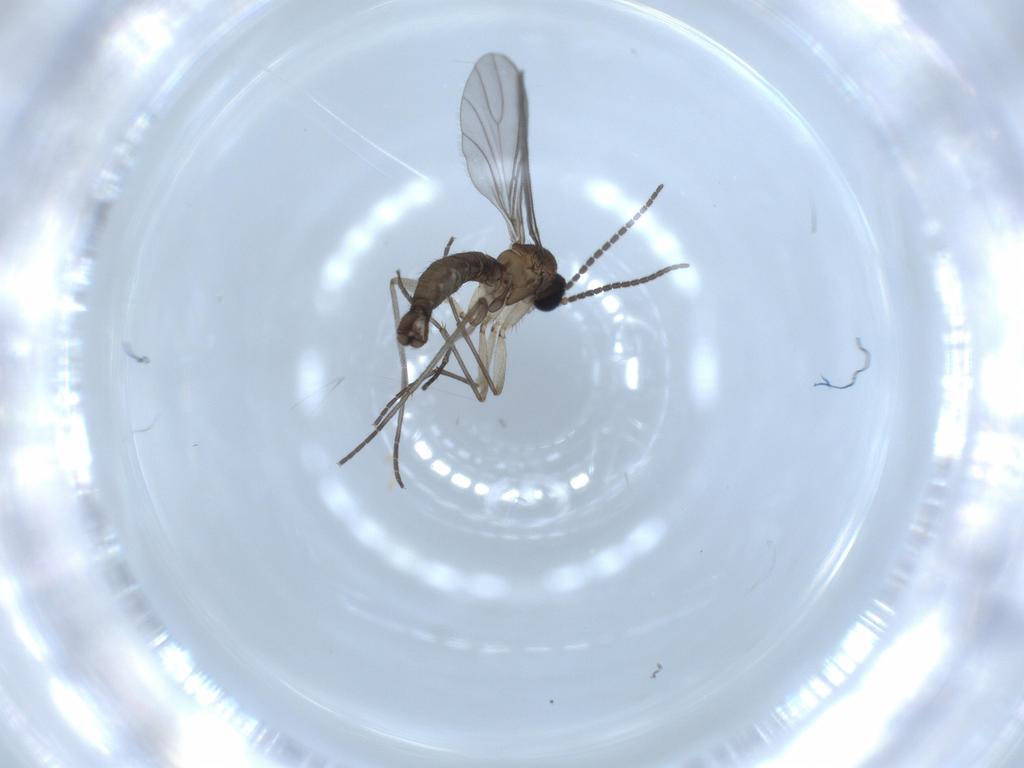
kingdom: Animalia
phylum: Arthropoda
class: Insecta
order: Diptera
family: Sciaridae
